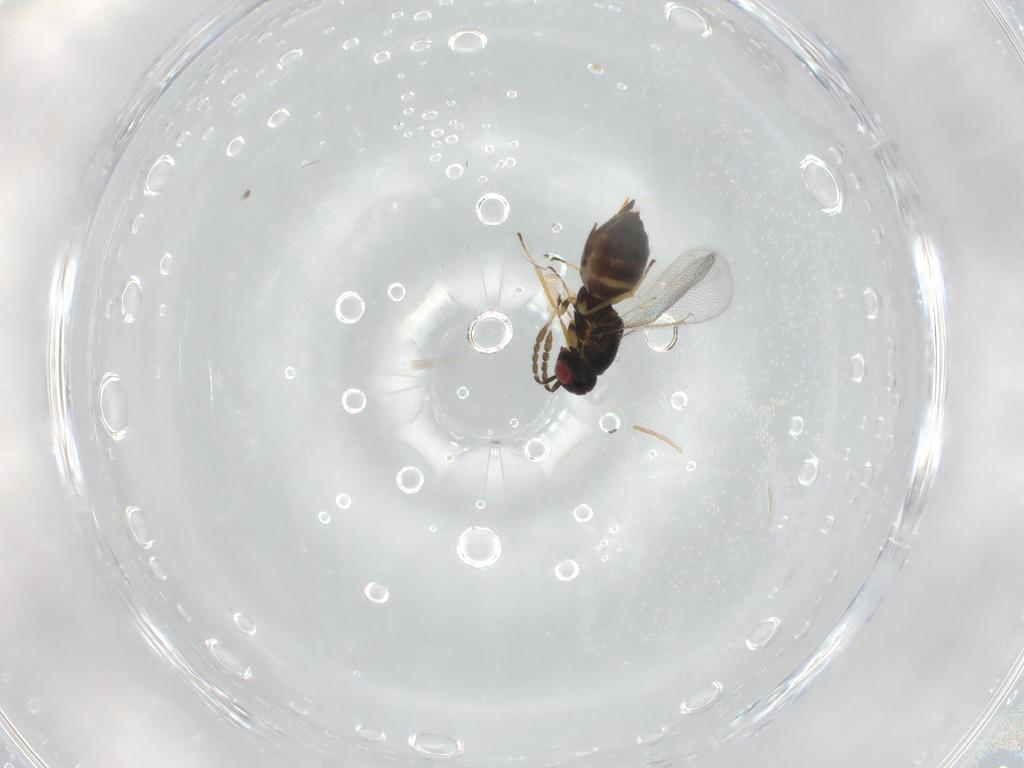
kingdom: Animalia
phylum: Arthropoda
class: Insecta
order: Hymenoptera
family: Mymaridae
